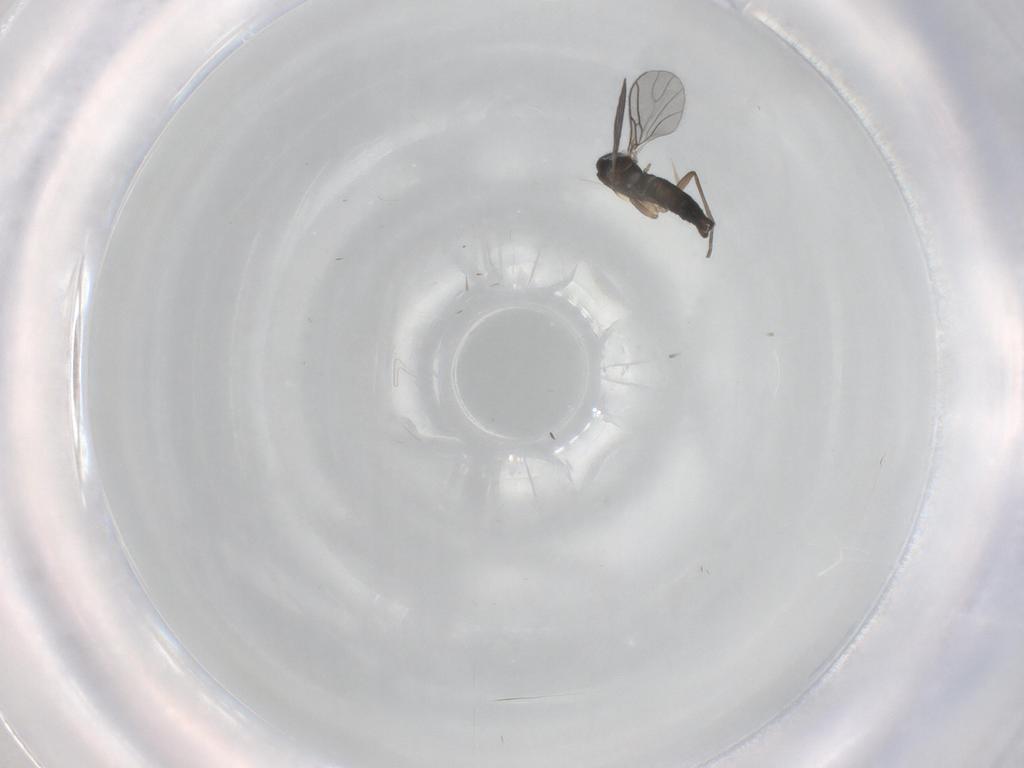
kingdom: Animalia
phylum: Arthropoda
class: Insecta
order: Diptera
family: Sciaridae
